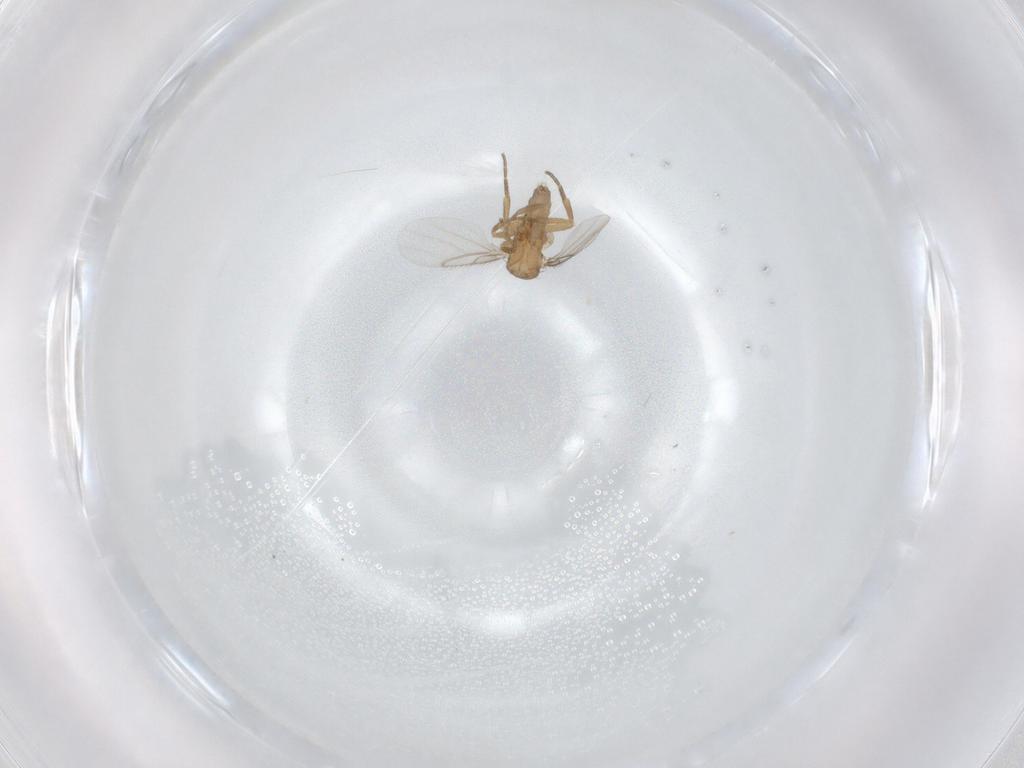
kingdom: Animalia
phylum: Arthropoda
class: Insecta
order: Diptera
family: Phoridae
